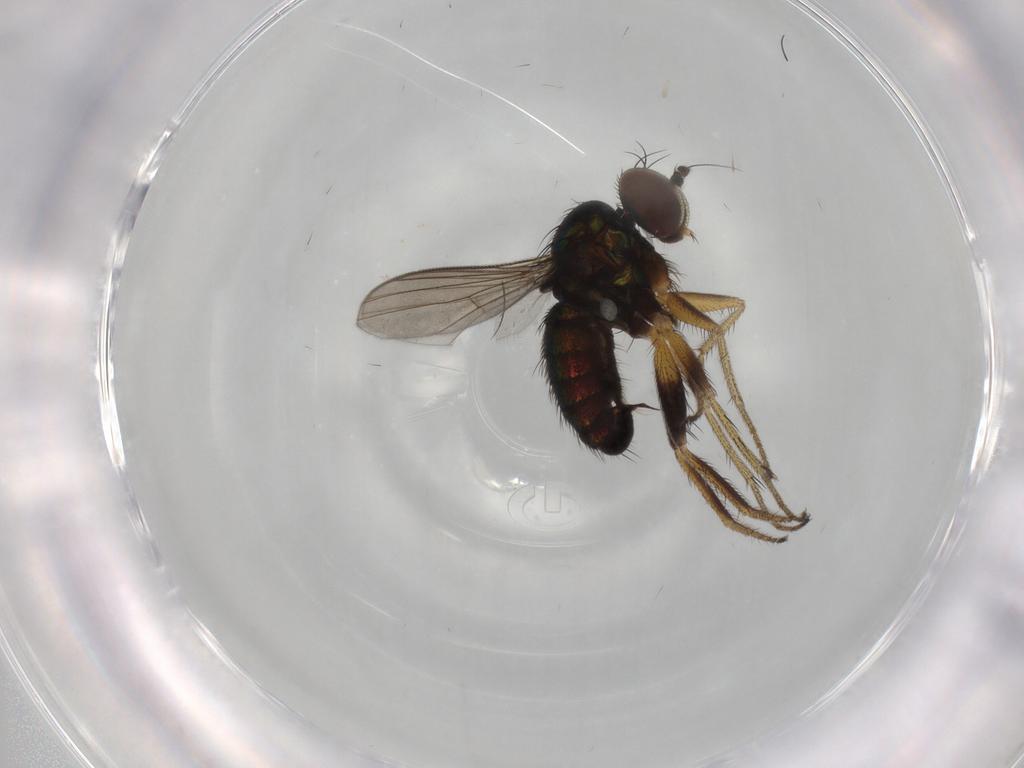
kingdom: Animalia
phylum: Arthropoda
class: Insecta
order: Diptera
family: Dolichopodidae
